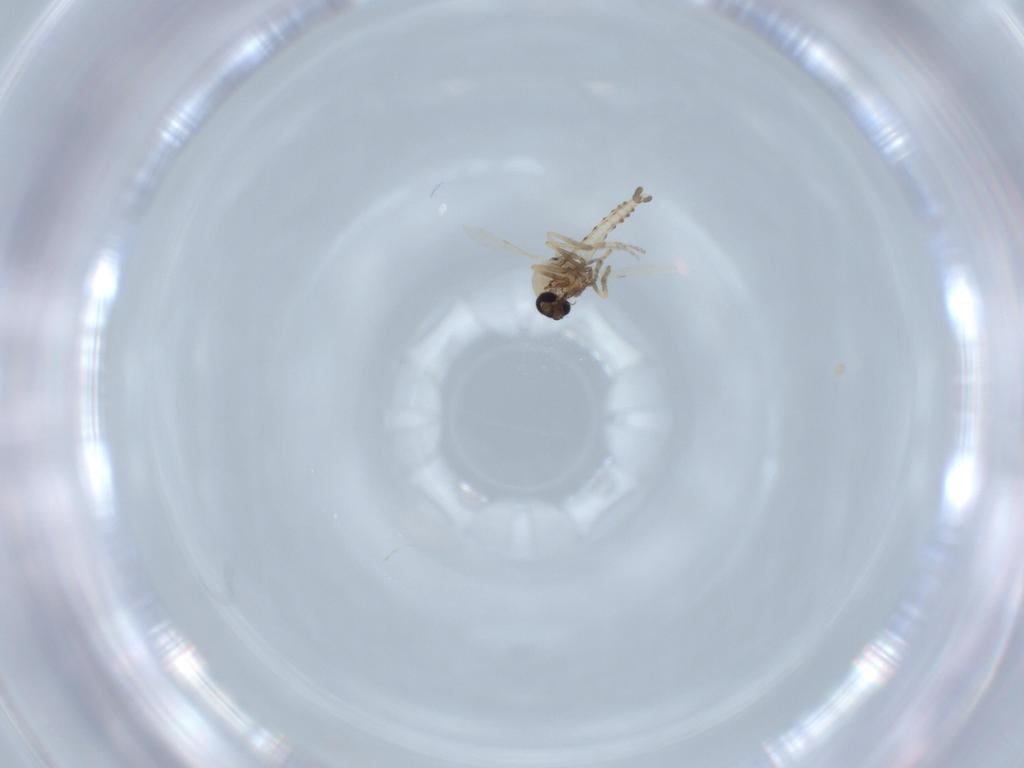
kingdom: Animalia
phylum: Arthropoda
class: Insecta
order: Diptera
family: Ceratopogonidae
